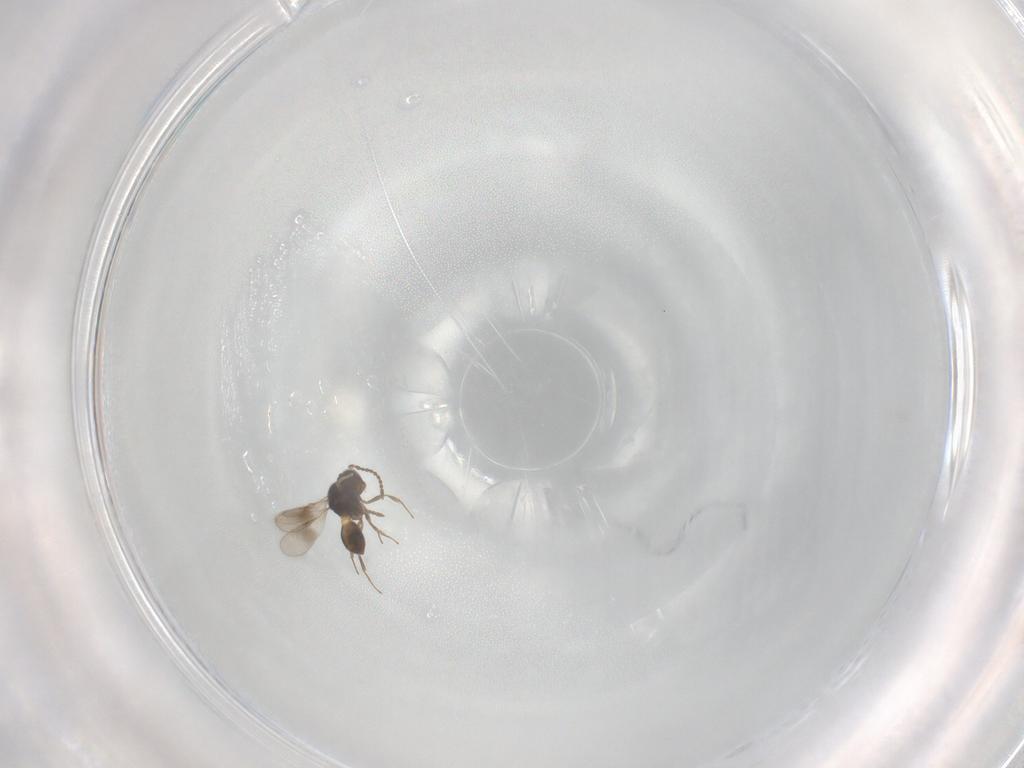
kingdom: Animalia
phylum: Arthropoda
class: Insecta
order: Hymenoptera
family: Scelionidae
